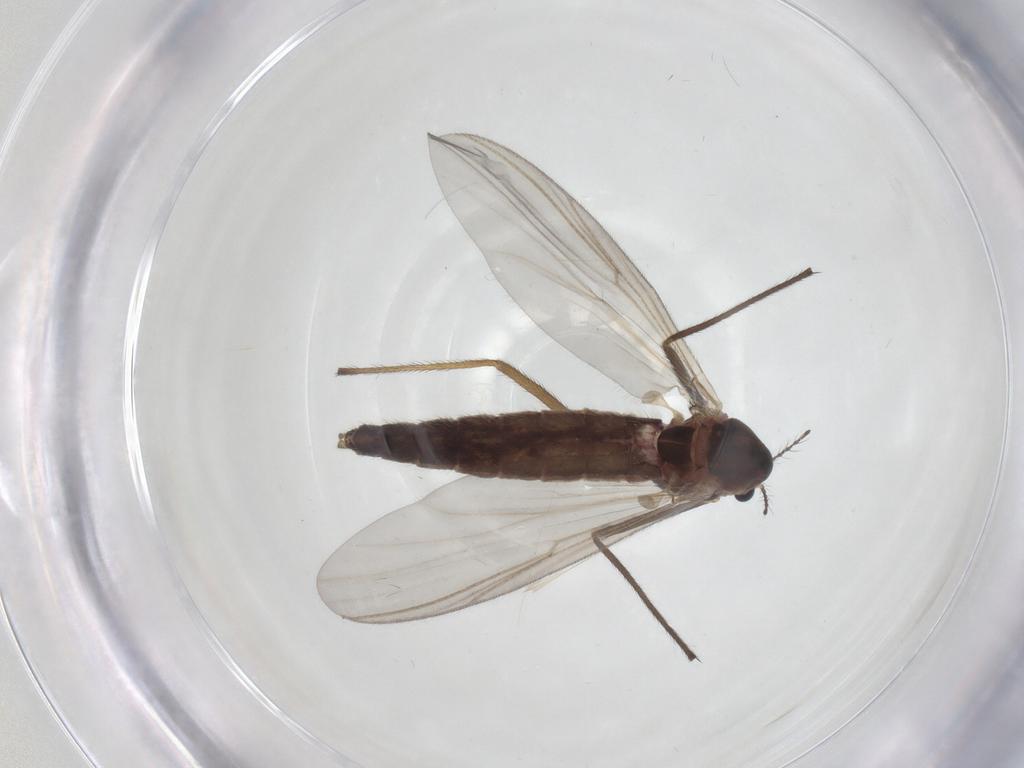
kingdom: Animalia
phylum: Arthropoda
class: Insecta
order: Diptera
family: Chironomidae
